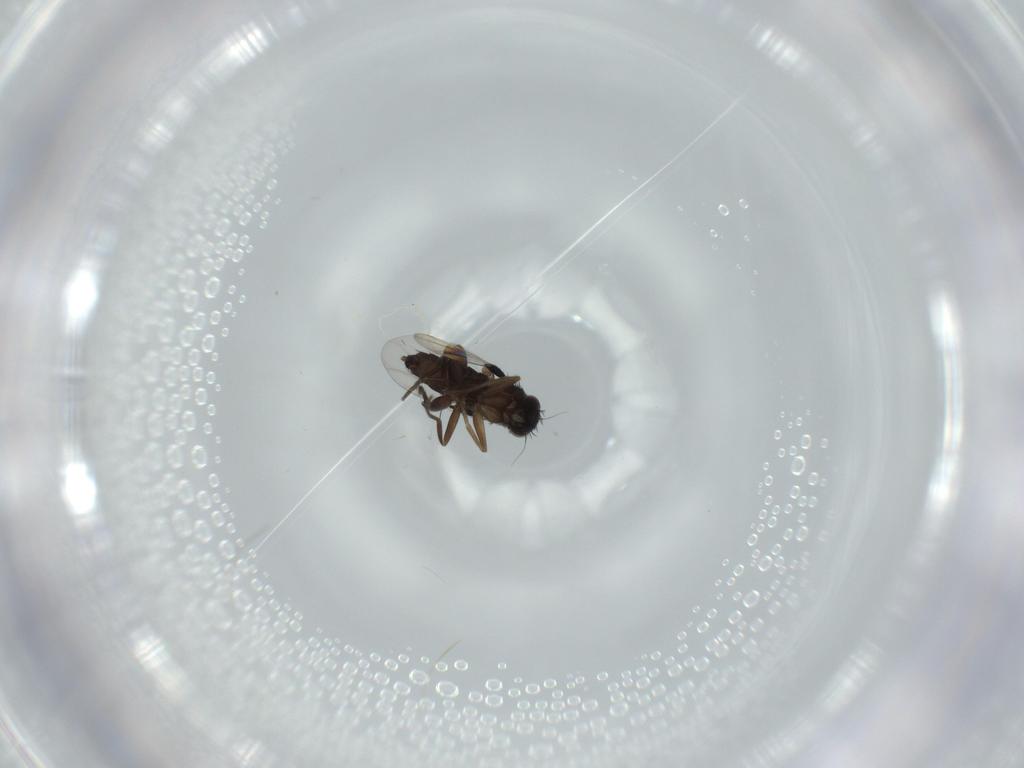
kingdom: Animalia
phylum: Arthropoda
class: Insecta
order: Diptera
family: Phoridae
